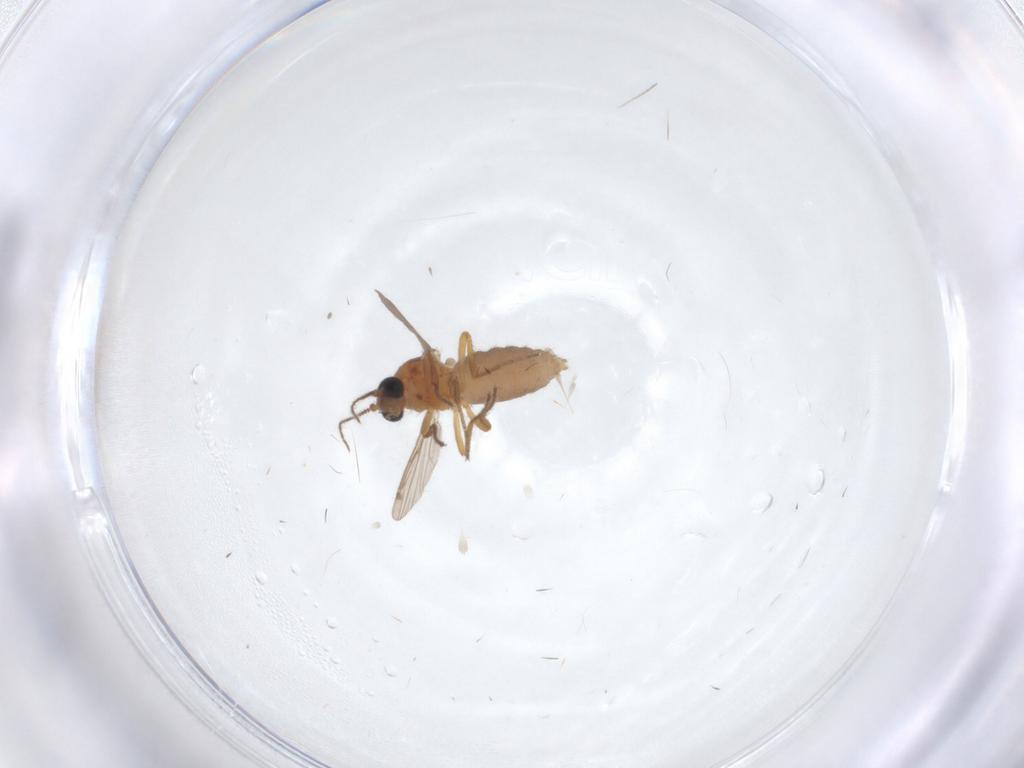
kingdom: Animalia
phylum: Arthropoda
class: Insecta
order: Diptera
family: Ceratopogonidae
